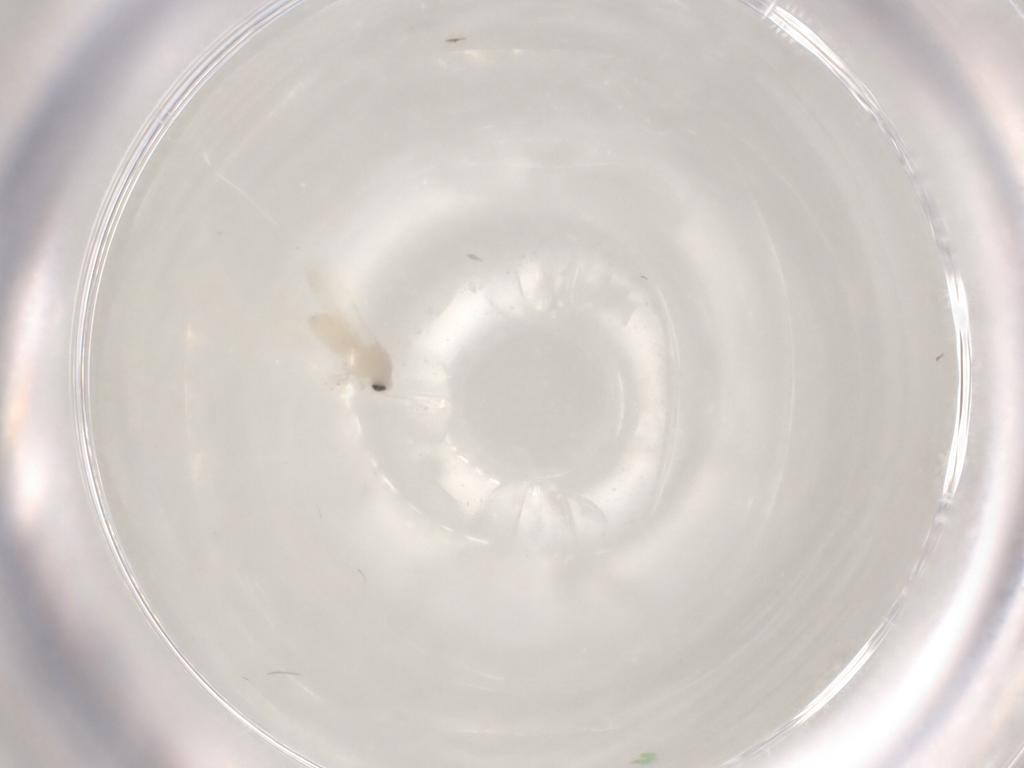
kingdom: Animalia
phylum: Arthropoda
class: Insecta
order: Hemiptera
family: Aleyrodidae
